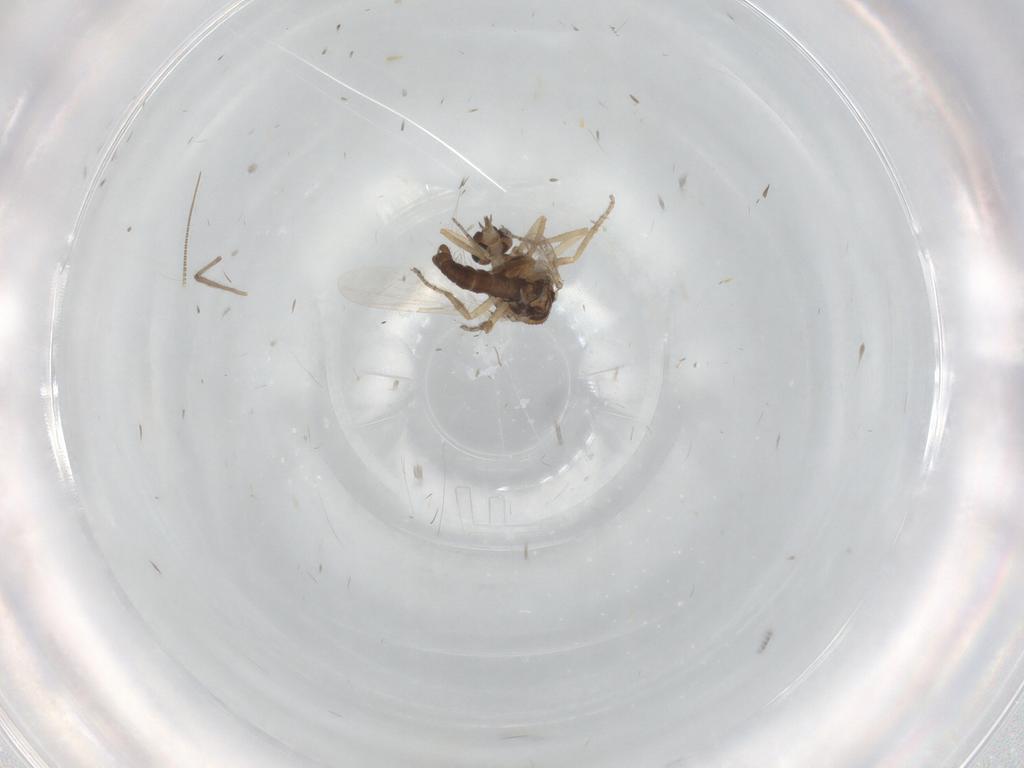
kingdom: Animalia
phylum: Arthropoda
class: Insecta
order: Diptera
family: Ceratopogonidae
